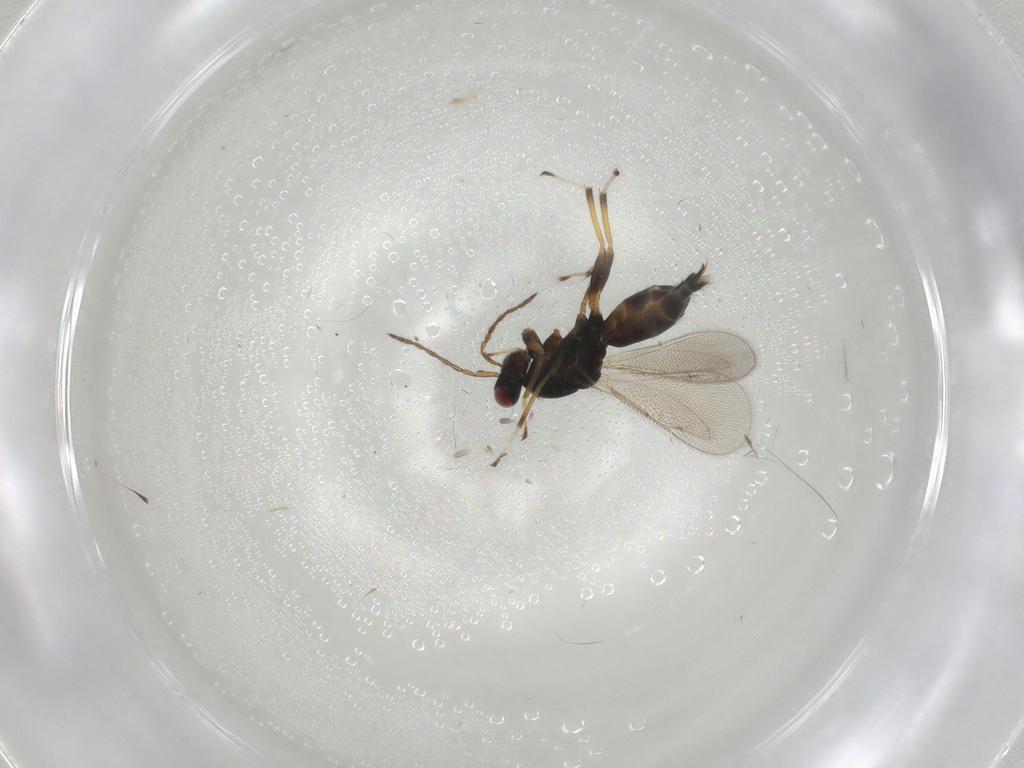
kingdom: Animalia
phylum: Arthropoda
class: Insecta
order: Hymenoptera
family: Eulophidae
